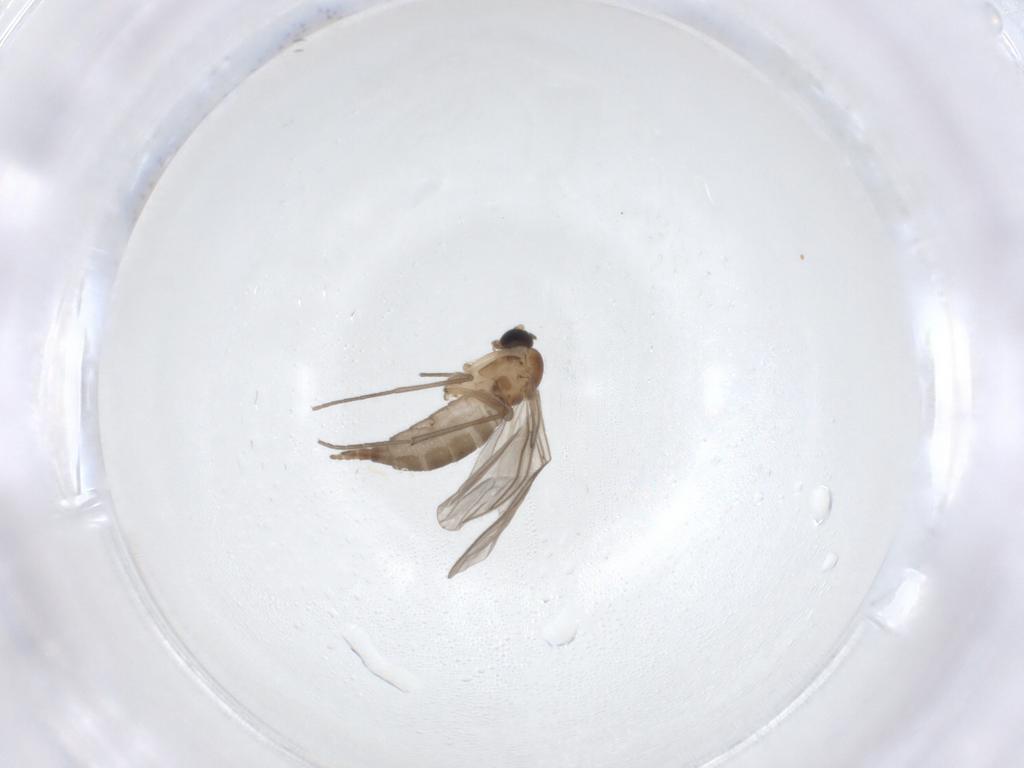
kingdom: Animalia
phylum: Arthropoda
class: Insecta
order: Diptera
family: Sciaridae
